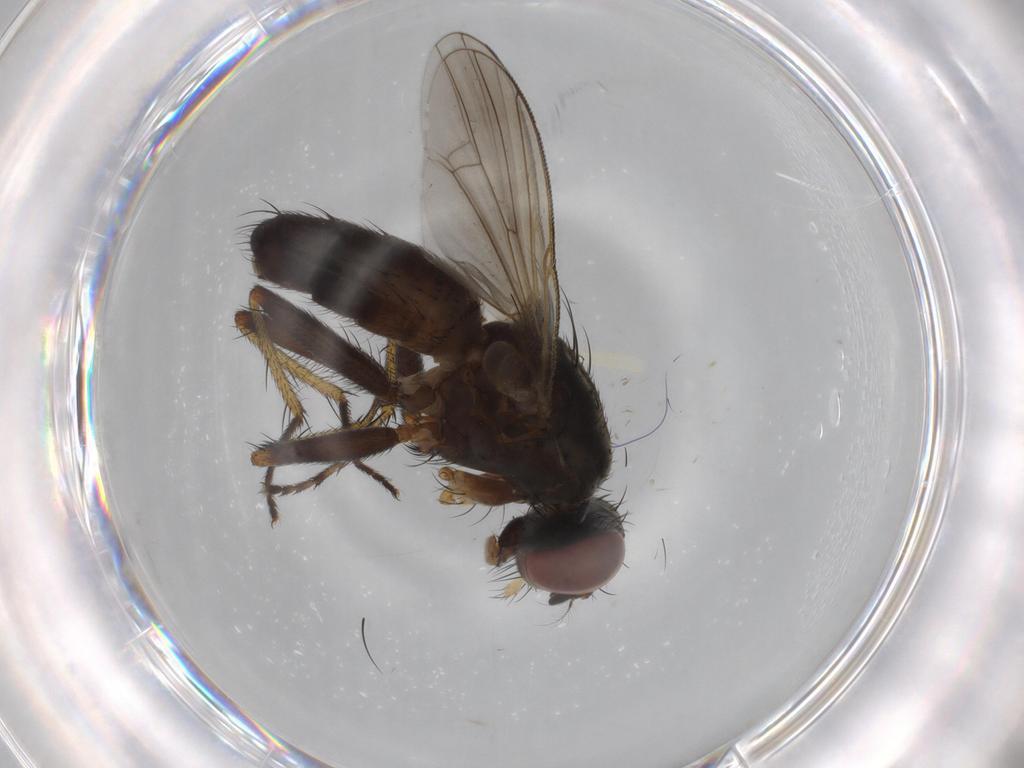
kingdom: Animalia
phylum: Arthropoda
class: Insecta
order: Diptera
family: Muscidae
